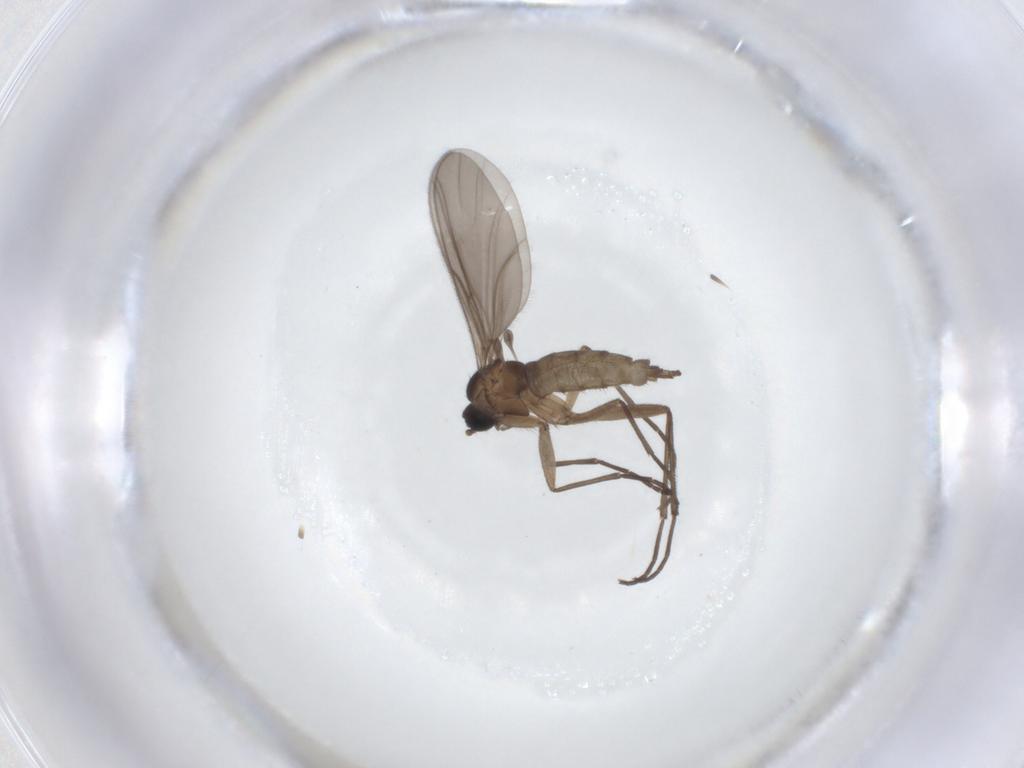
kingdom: Animalia
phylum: Arthropoda
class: Insecta
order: Diptera
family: Sciaridae
